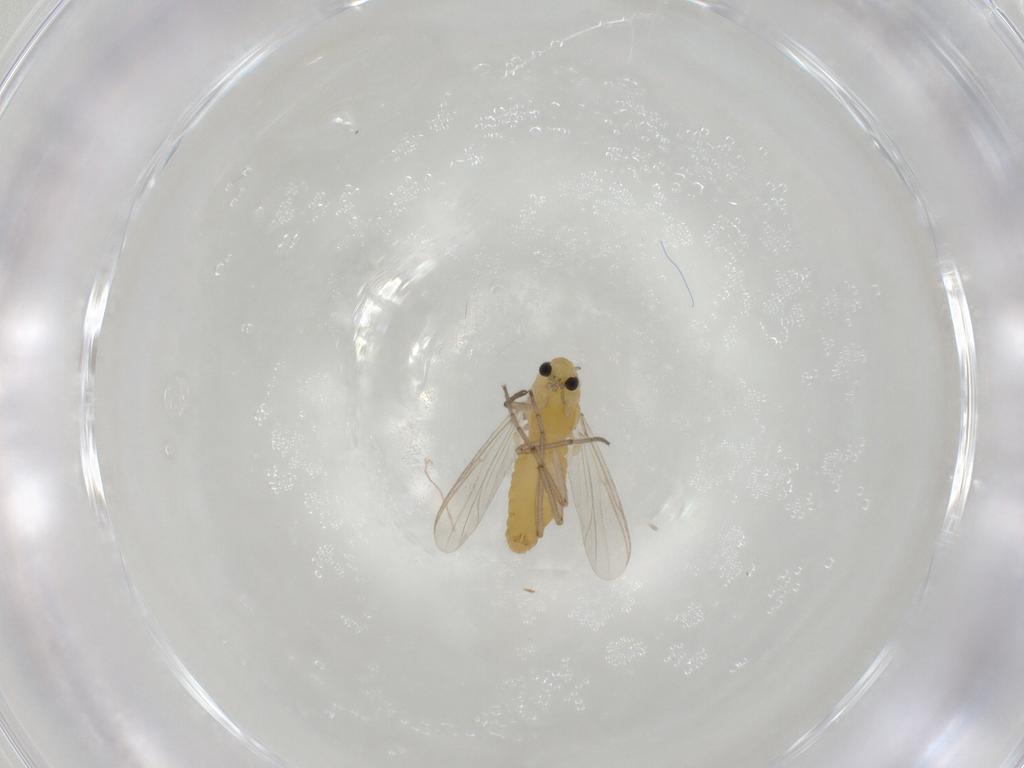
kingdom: Animalia
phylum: Arthropoda
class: Insecta
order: Diptera
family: Chironomidae
